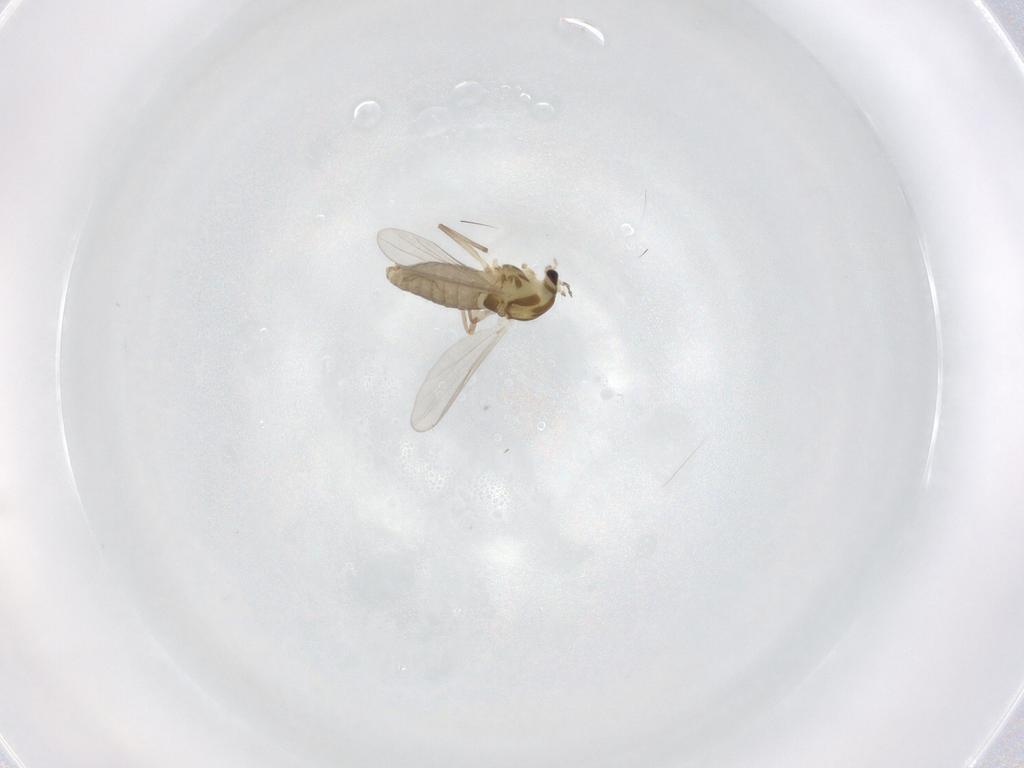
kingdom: Animalia
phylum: Arthropoda
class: Insecta
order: Diptera
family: Chironomidae
